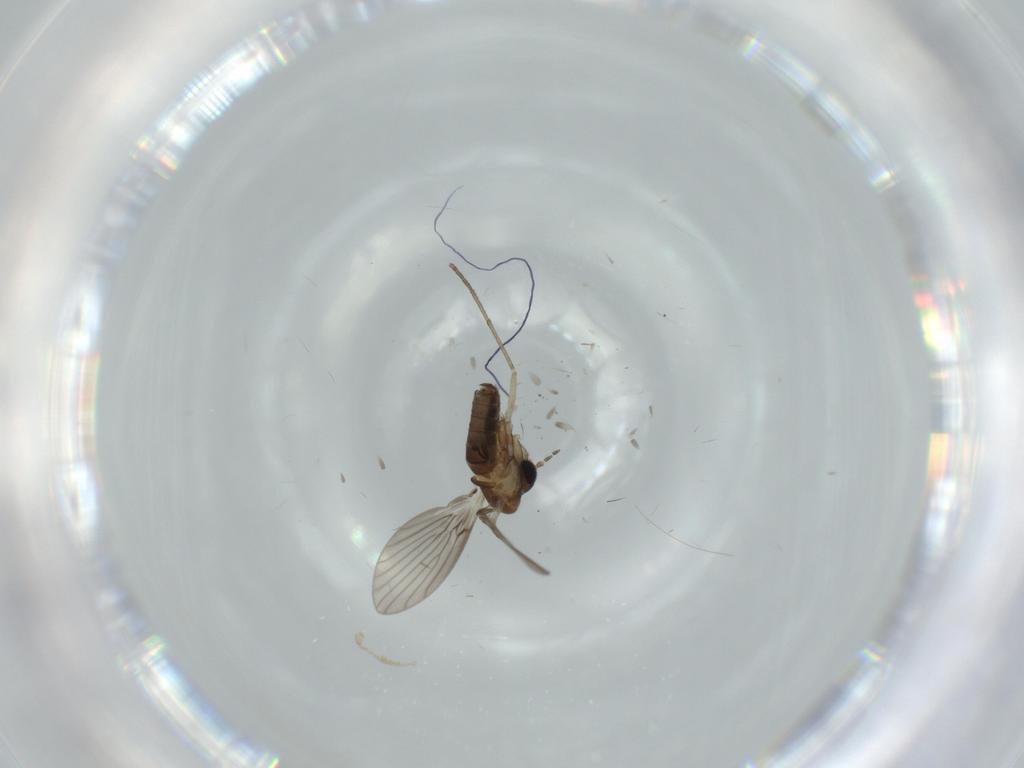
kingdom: Animalia
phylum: Arthropoda
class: Insecta
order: Diptera
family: Psychodidae
